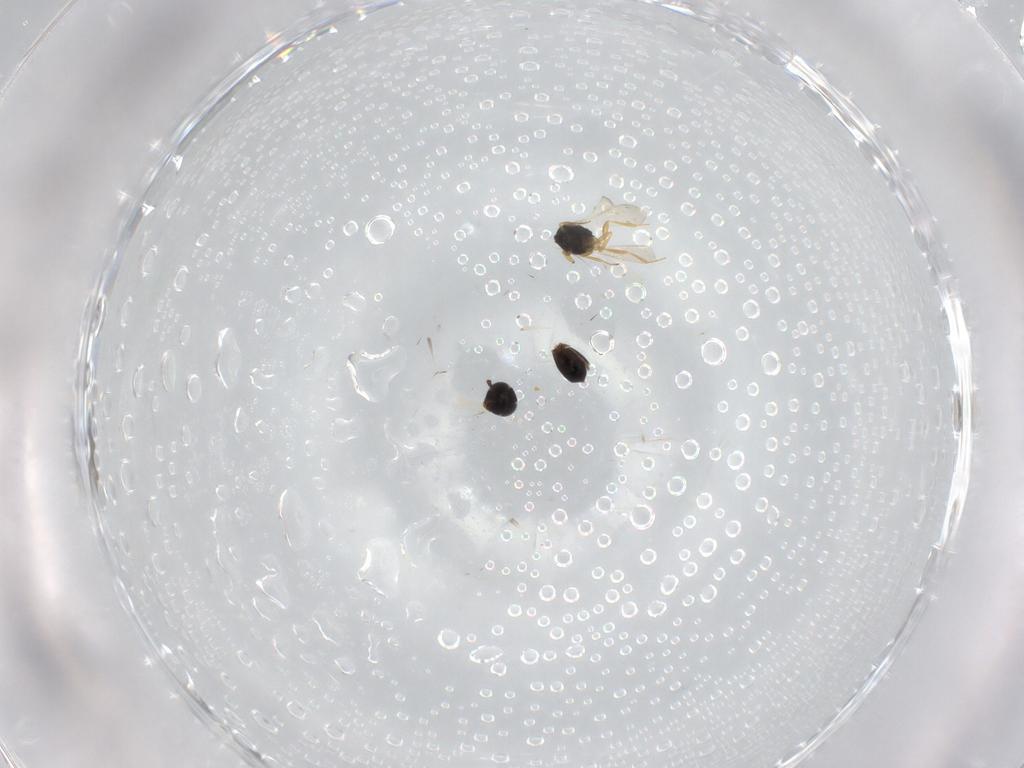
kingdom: Animalia
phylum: Arthropoda
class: Insecta
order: Hymenoptera
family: Scelionidae
